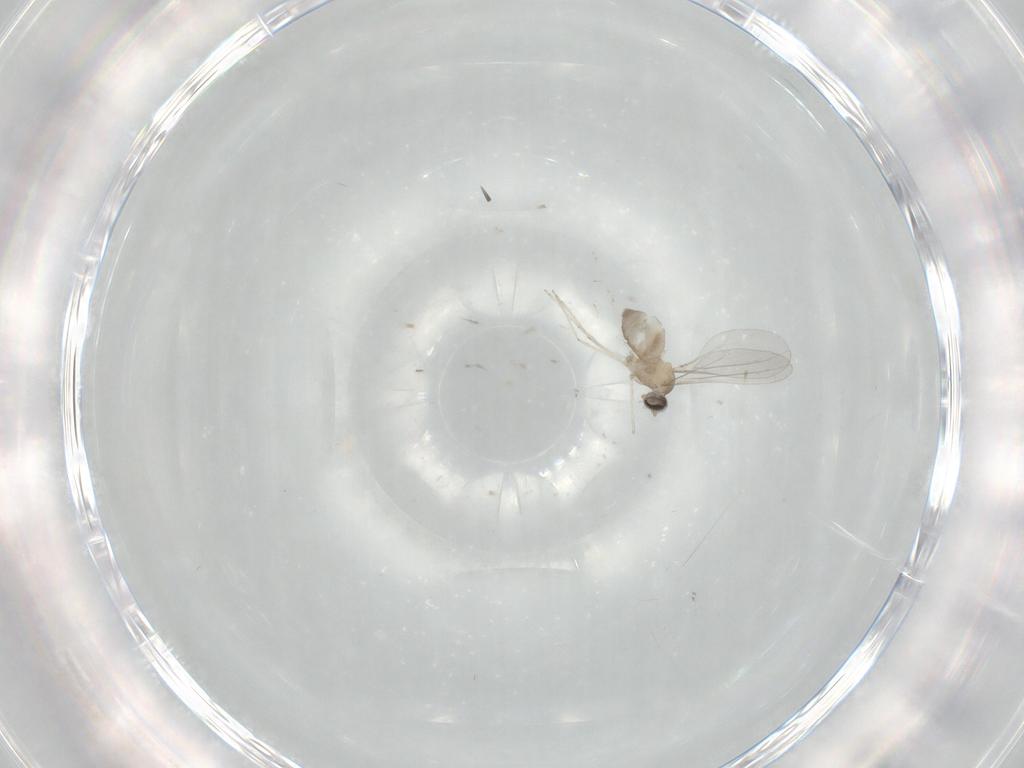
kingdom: Animalia
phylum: Arthropoda
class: Insecta
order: Diptera
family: Cecidomyiidae
